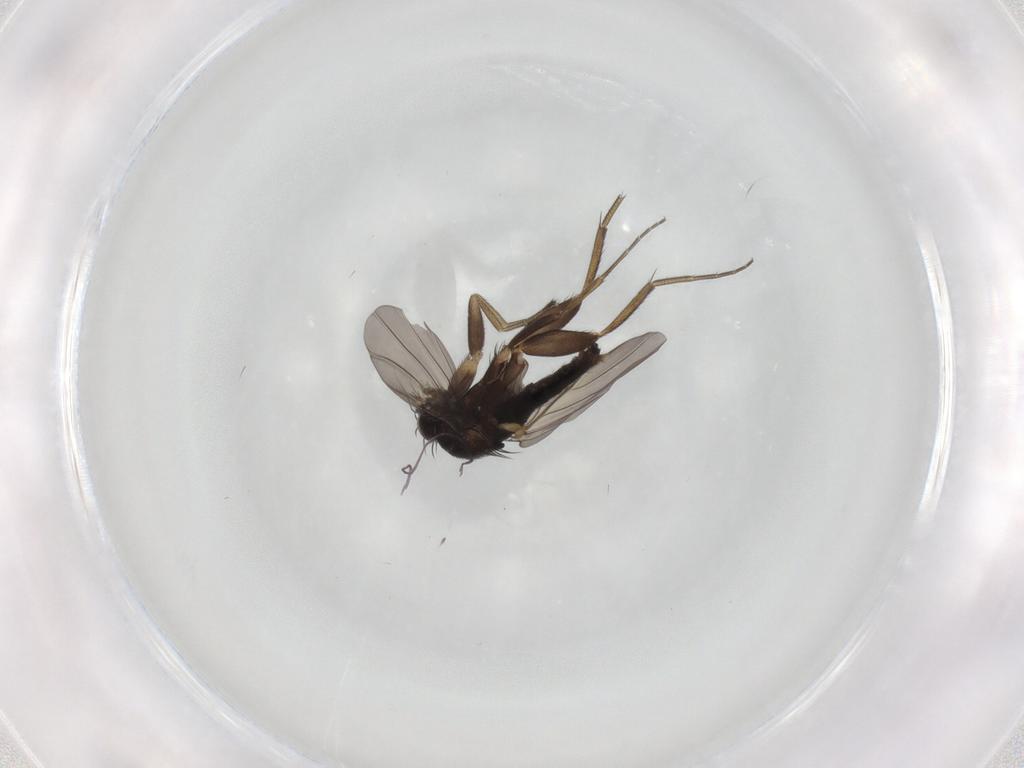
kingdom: Animalia
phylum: Arthropoda
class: Insecta
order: Diptera
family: Phoridae
